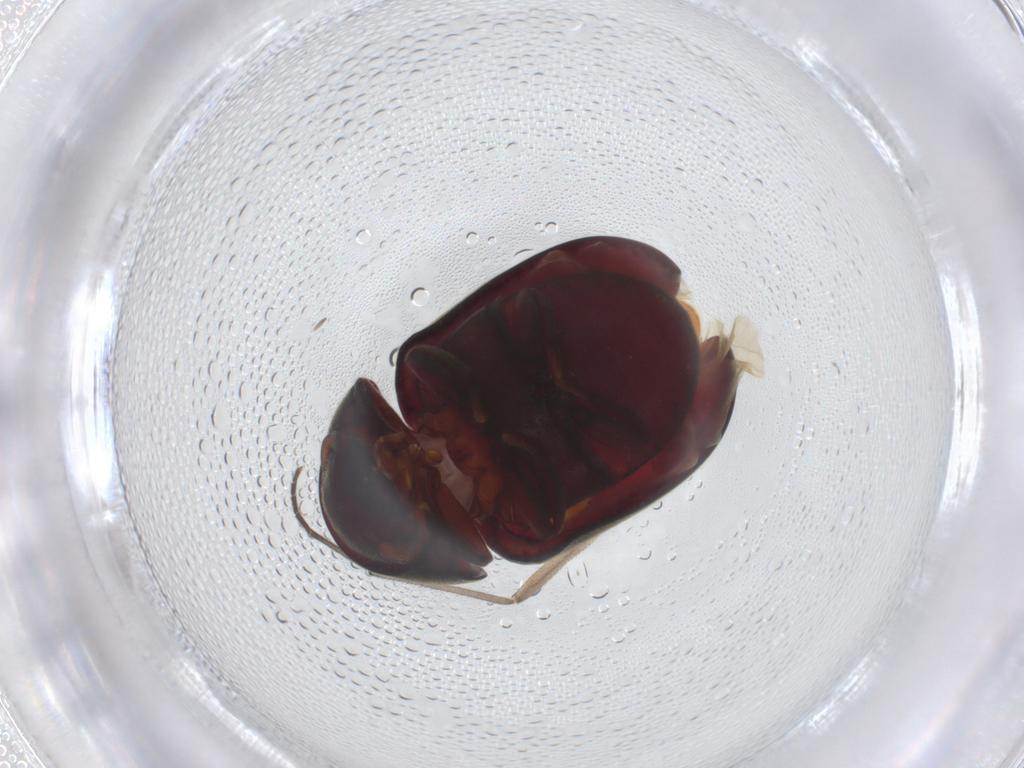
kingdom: Animalia
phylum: Arthropoda
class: Insecta
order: Coleoptera
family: Ptinidae
